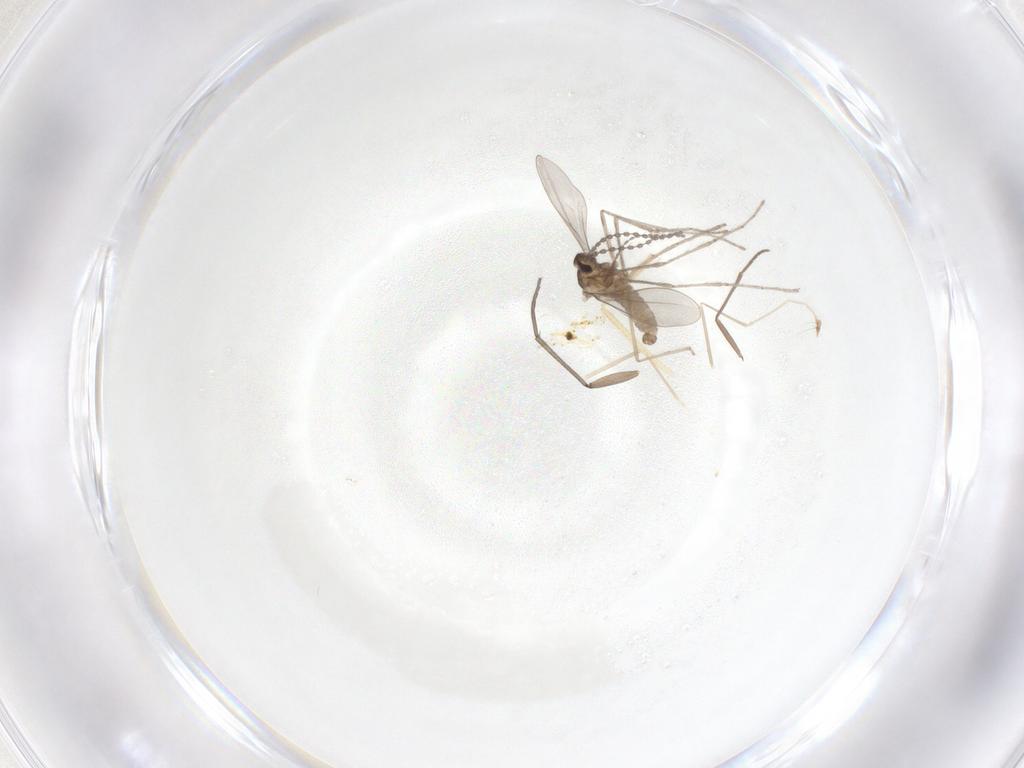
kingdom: Animalia
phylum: Arthropoda
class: Insecta
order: Diptera
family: Cecidomyiidae
